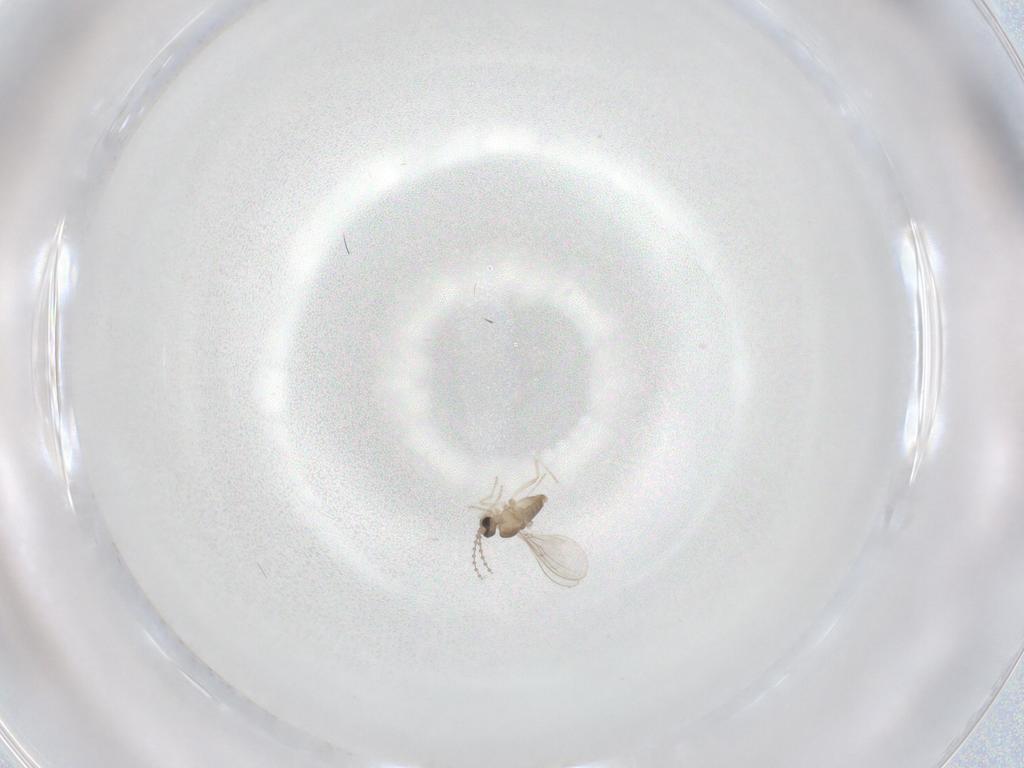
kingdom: Animalia
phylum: Arthropoda
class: Insecta
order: Diptera
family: Cecidomyiidae
